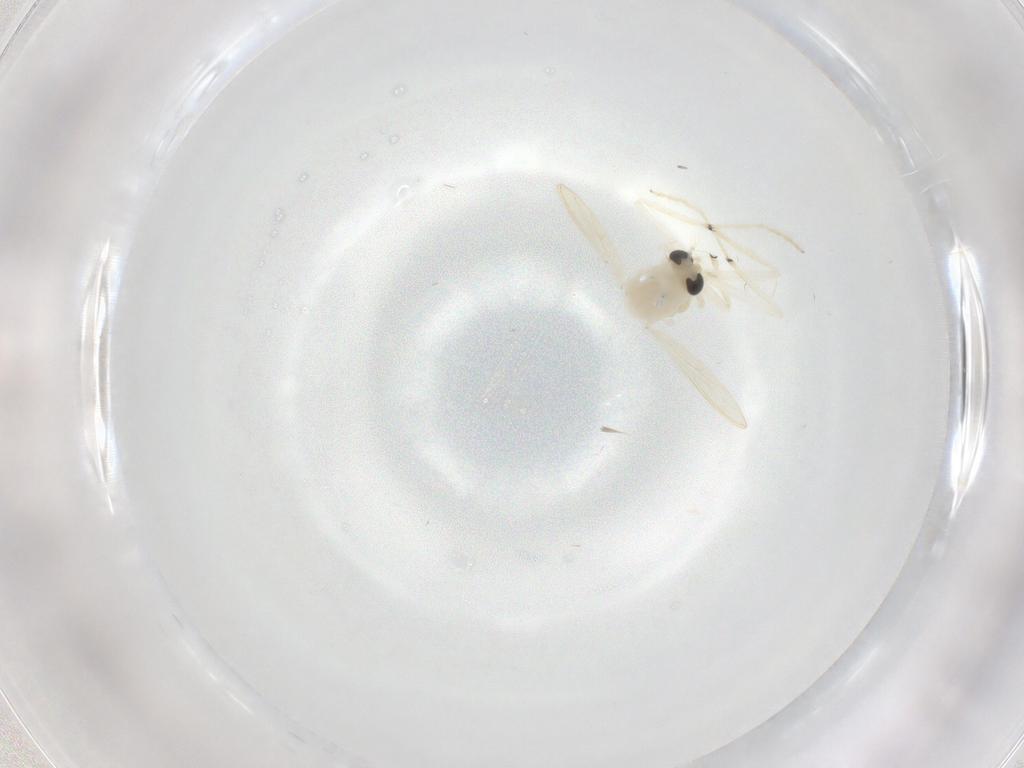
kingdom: Animalia
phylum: Arthropoda
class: Insecta
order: Diptera
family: Chironomidae
